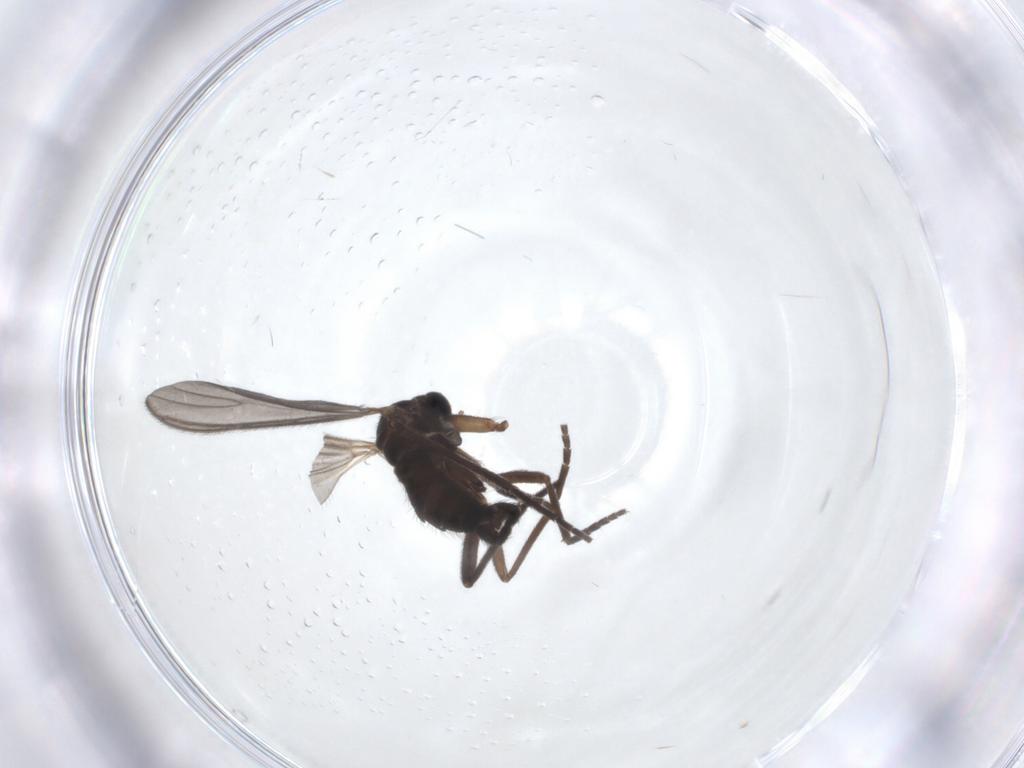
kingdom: Animalia
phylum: Arthropoda
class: Insecta
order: Diptera
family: Sciaridae
